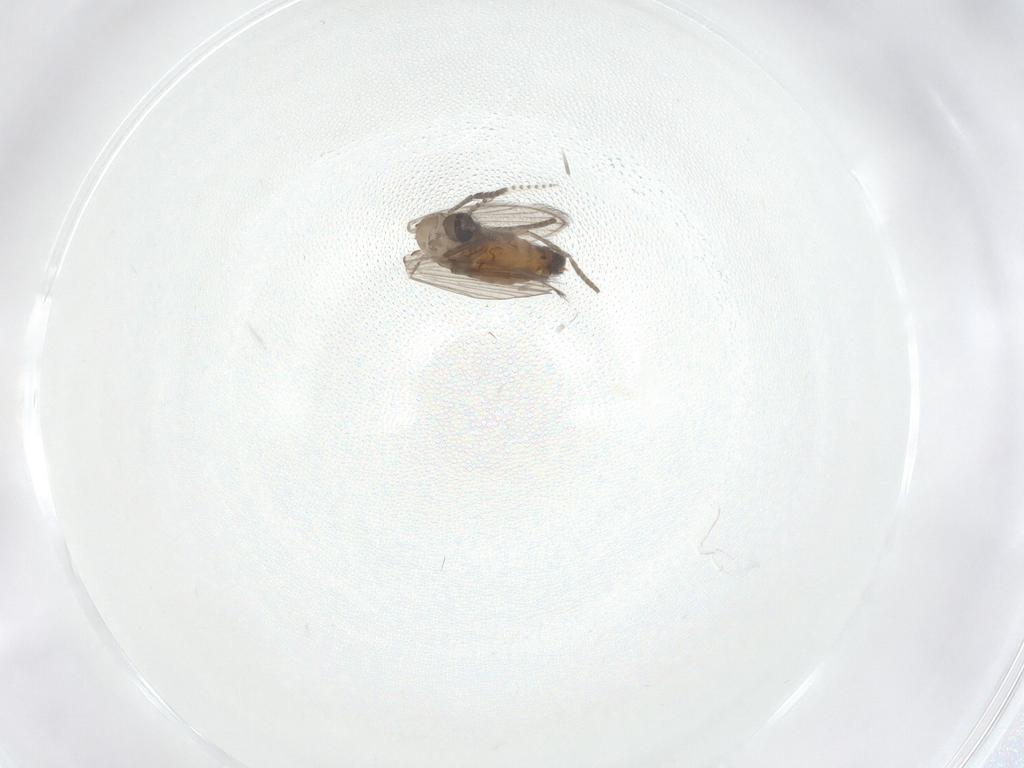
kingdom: Animalia
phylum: Arthropoda
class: Insecta
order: Diptera
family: Psychodidae
